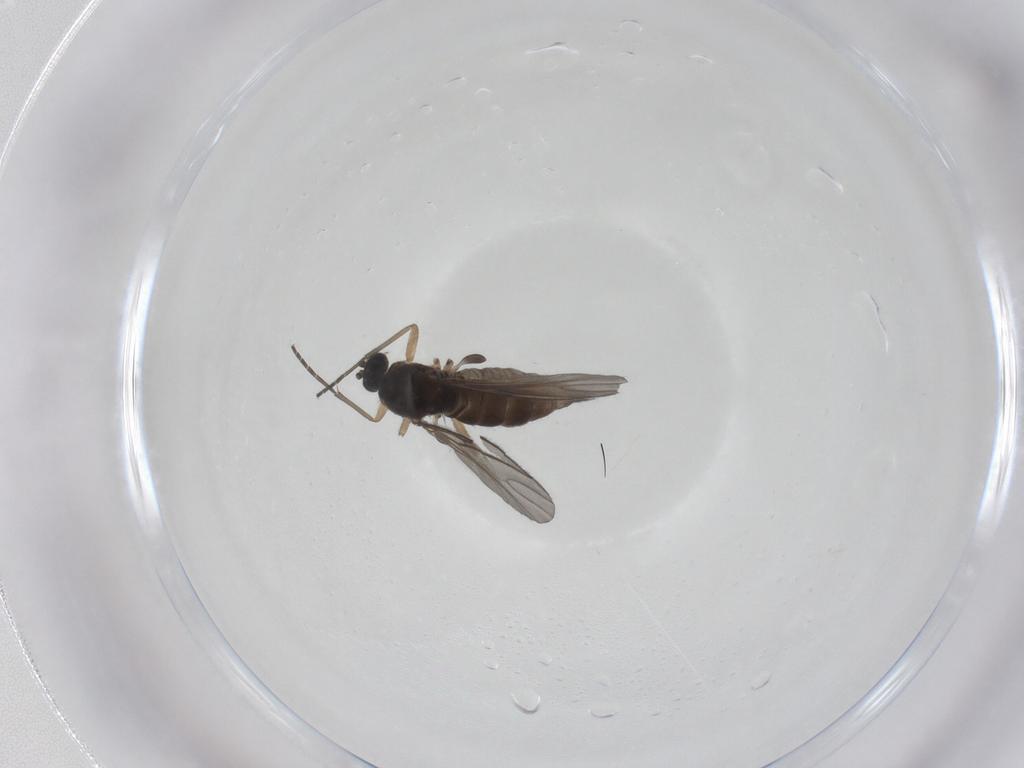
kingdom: Animalia
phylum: Arthropoda
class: Insecta
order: Diptera
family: Sciaridae
